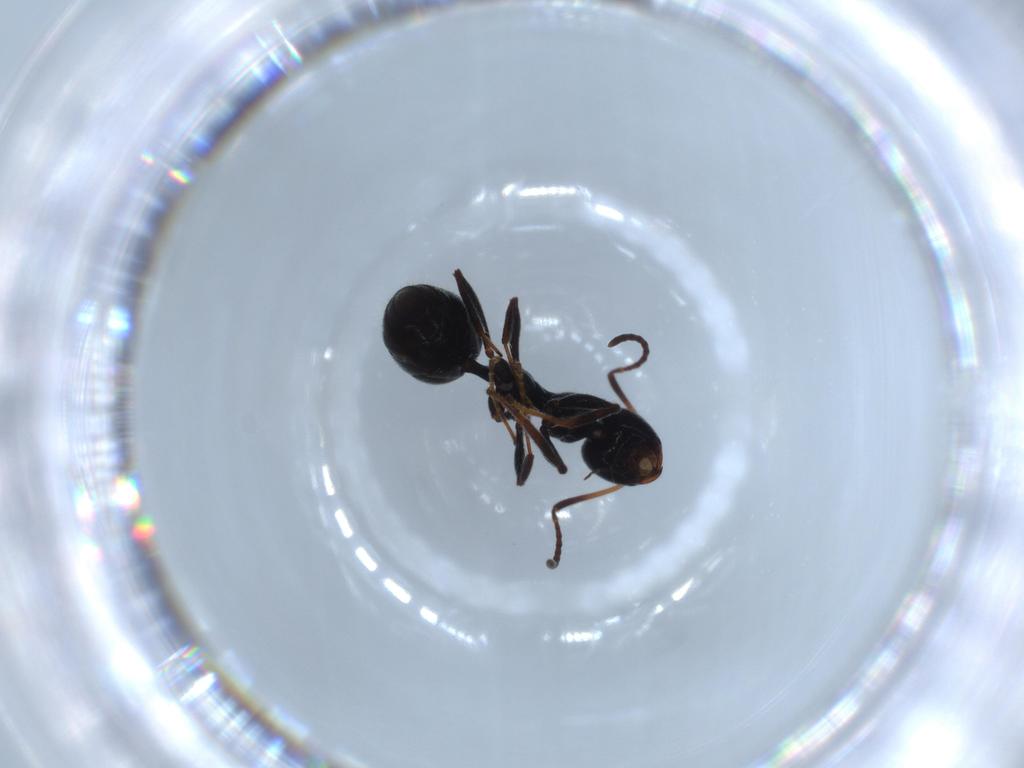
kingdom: Animalia
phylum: Arthropoda
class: Insecta
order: Hymenoptera
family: Formicidae
